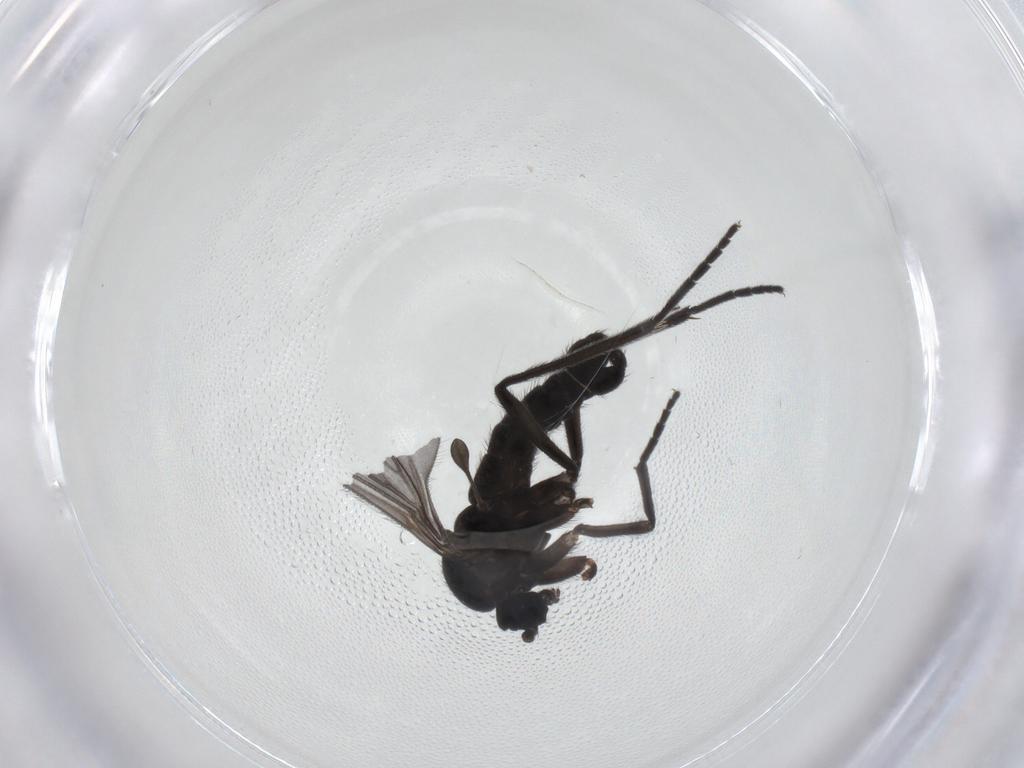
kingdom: Animalia
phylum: Arthropoda
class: Insecta
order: Diptera
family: Sciaridae
